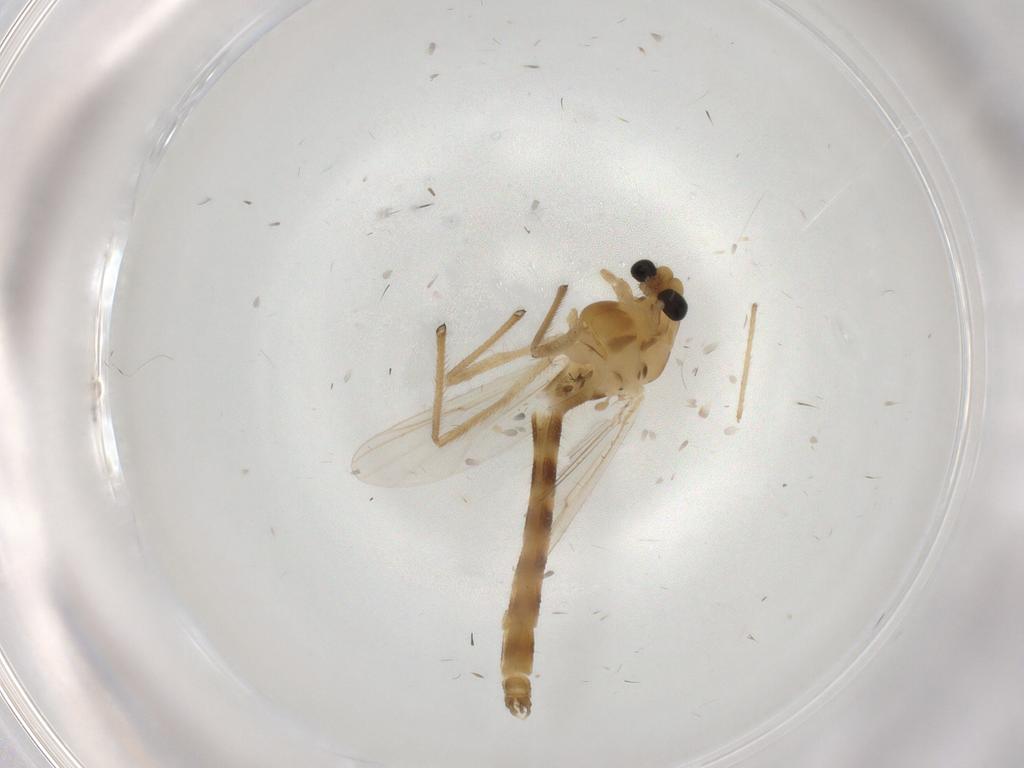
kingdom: Animalia
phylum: Arthropoda
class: Insecta
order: Diptera
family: Chironomidae
